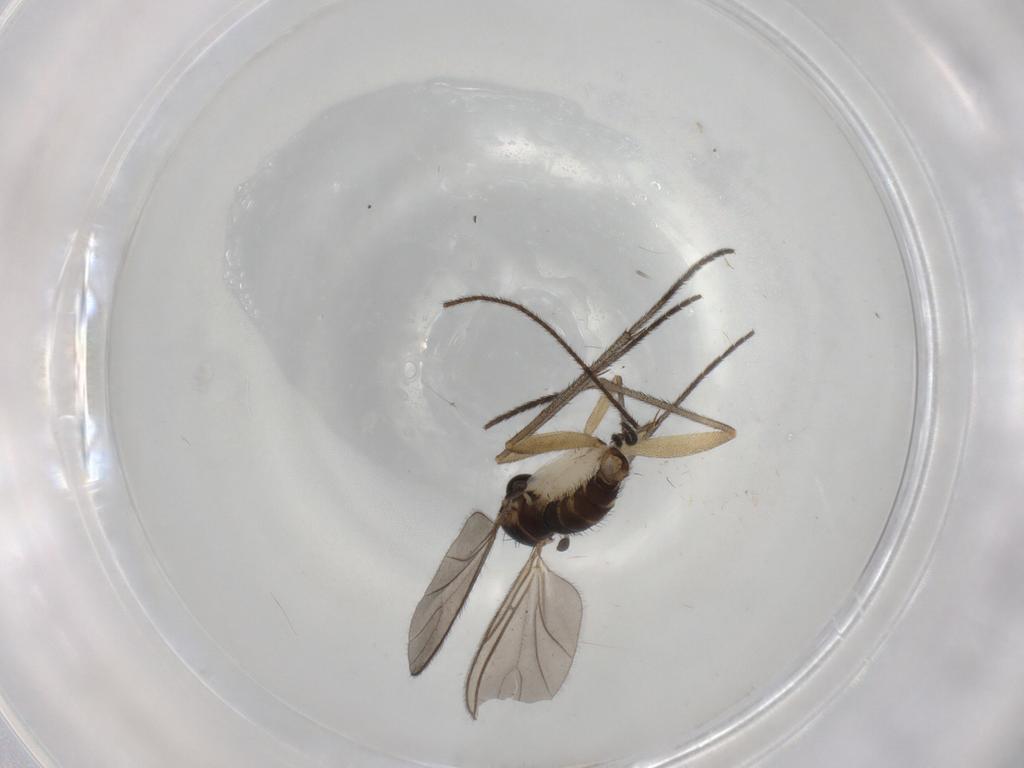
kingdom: Animalia
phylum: Arthropoda
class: Insecta
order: Diptera
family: Sciaridae
